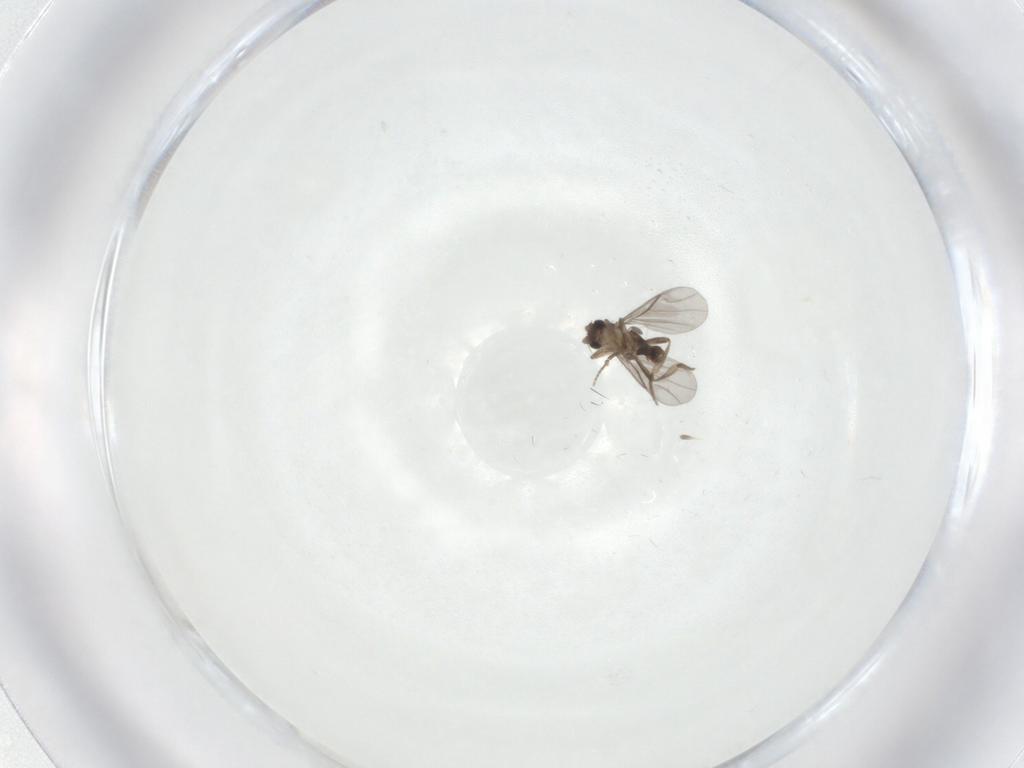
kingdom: Animalia
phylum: Arthropoda
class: Insecta
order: Diptera
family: Cecidomyiidae
